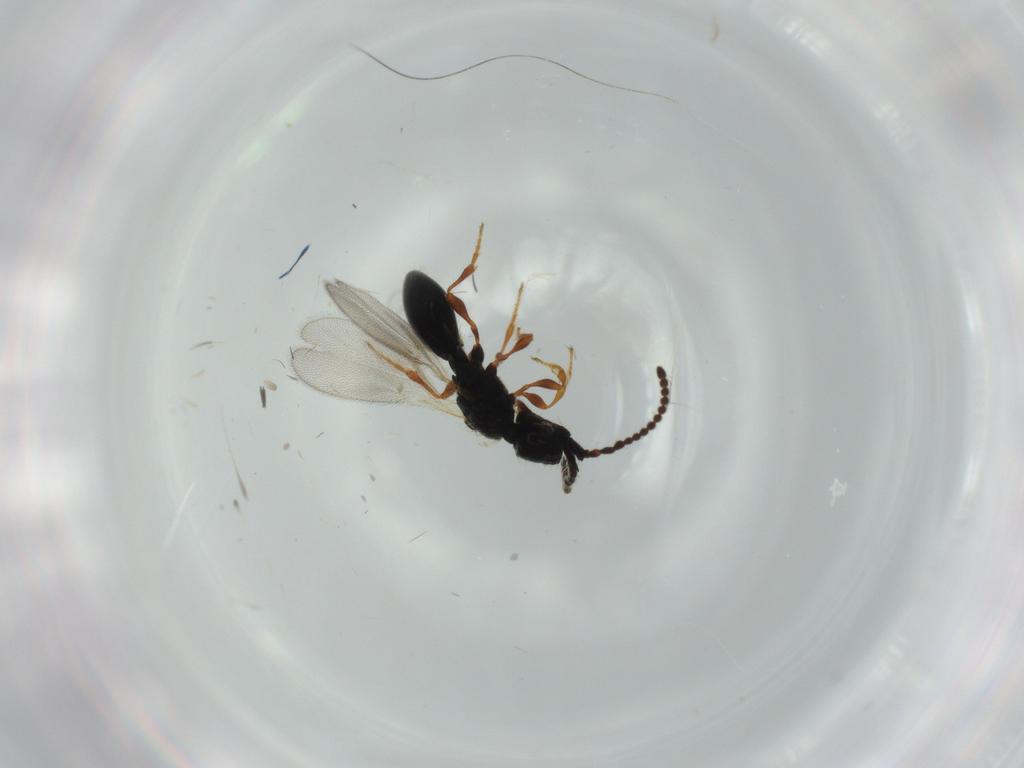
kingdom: Animalia
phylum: Arthropoda
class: Insecta
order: Hymenoptera
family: Diapriidae
